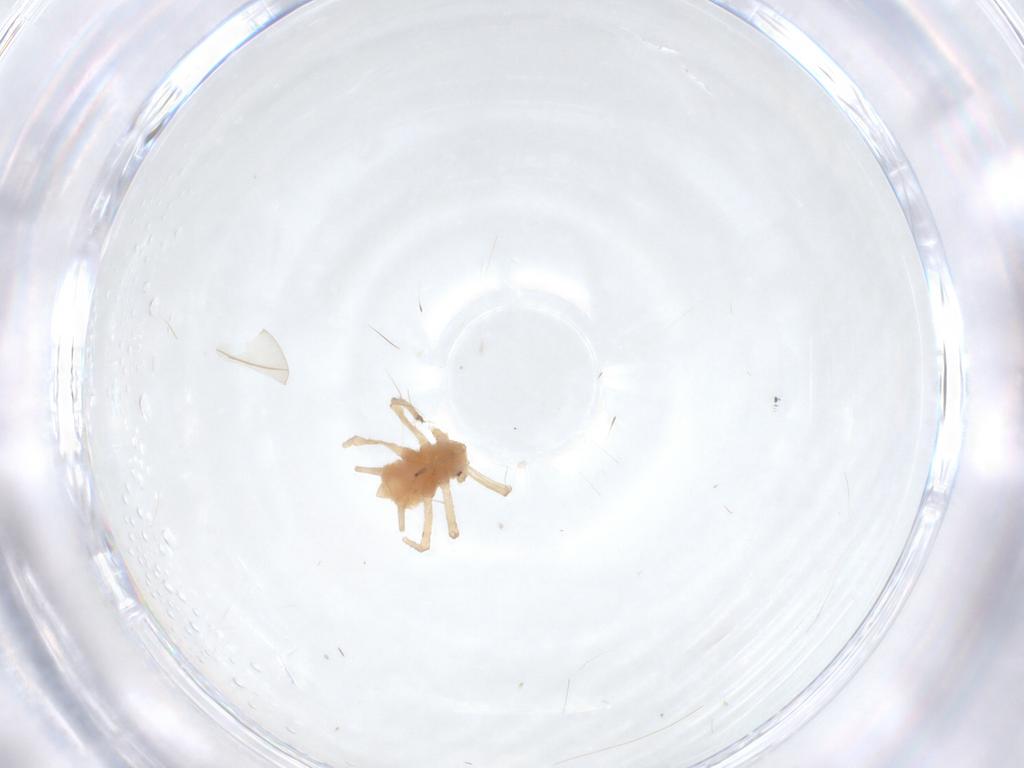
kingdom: Animalia
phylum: Arthropoda
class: Insecta
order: Hemiptera
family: Aphididae
